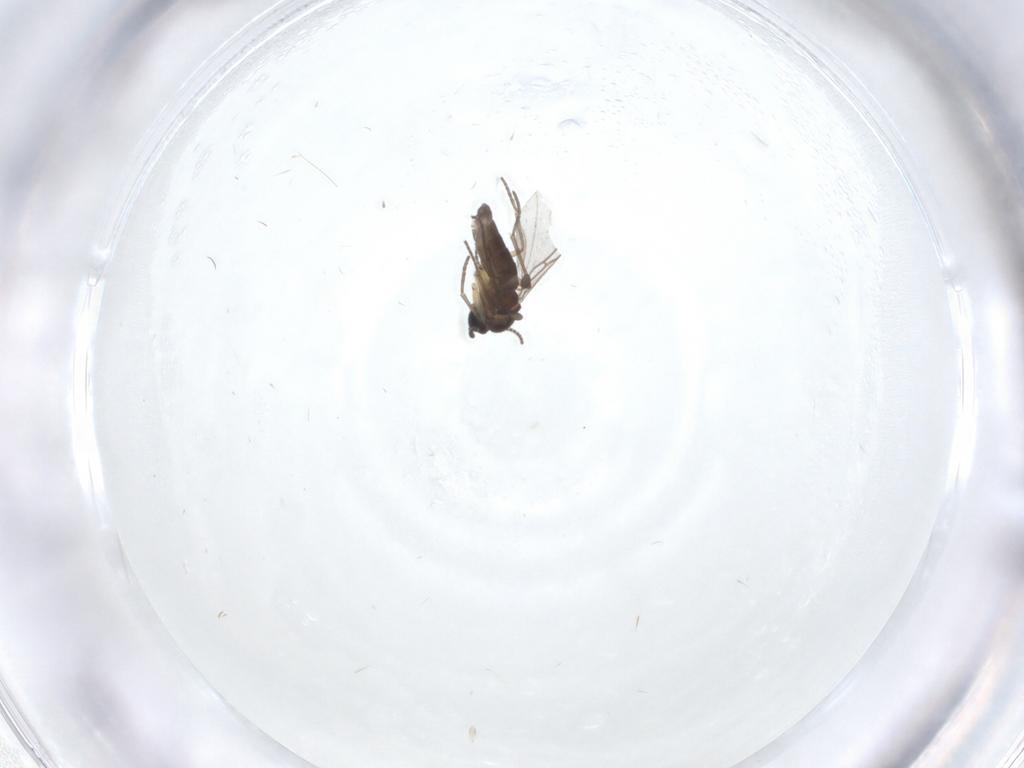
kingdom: Animalia
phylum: Arthropoda
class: Insecta
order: Diptera
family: Sciaridae
